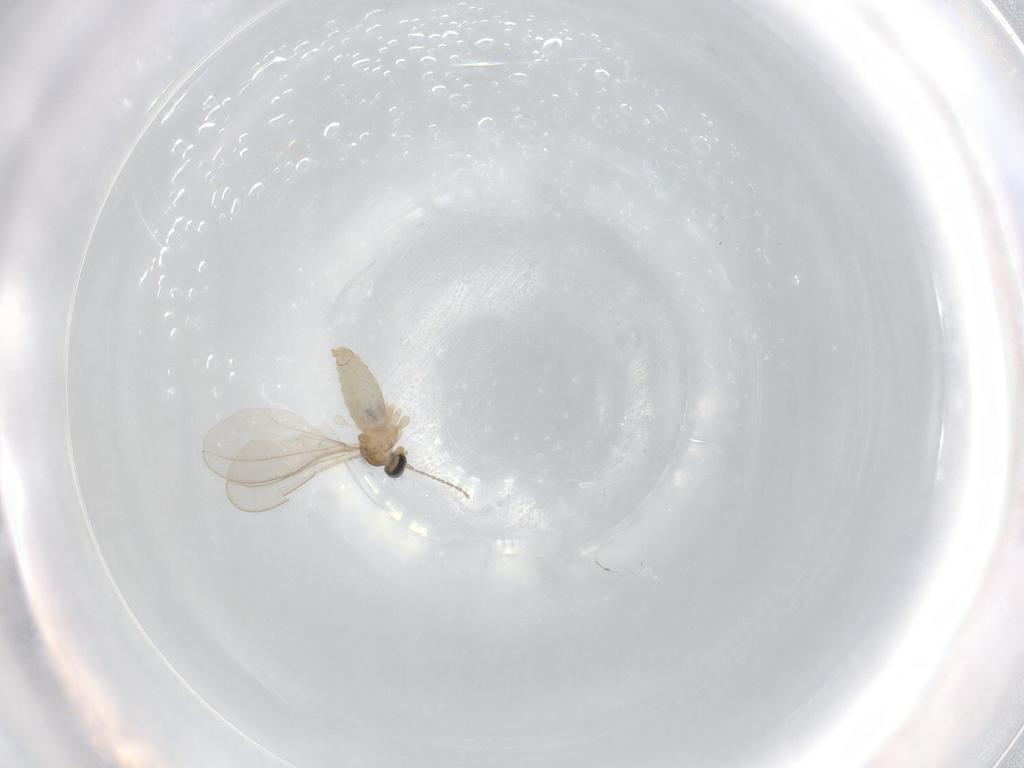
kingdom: Animalia
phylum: Arthropoda
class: Insecta
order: Diptera
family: Cecidomyiidae
